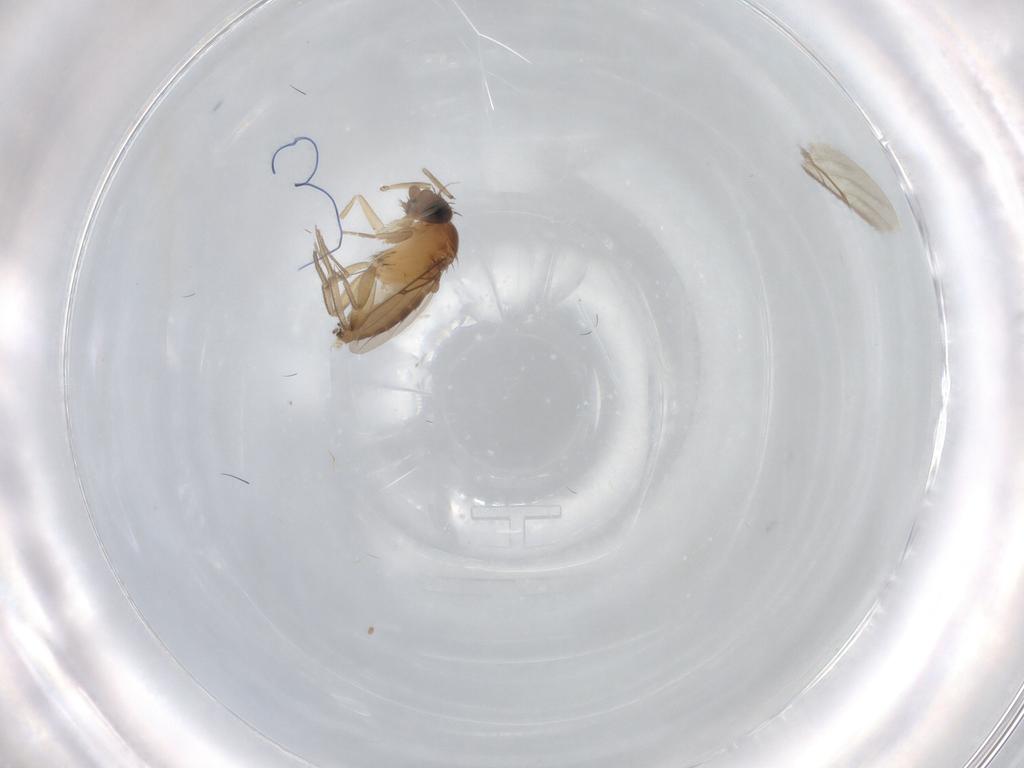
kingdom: Animalia
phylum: Arthropoda
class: Insecta
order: Diptera
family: Phoridae
